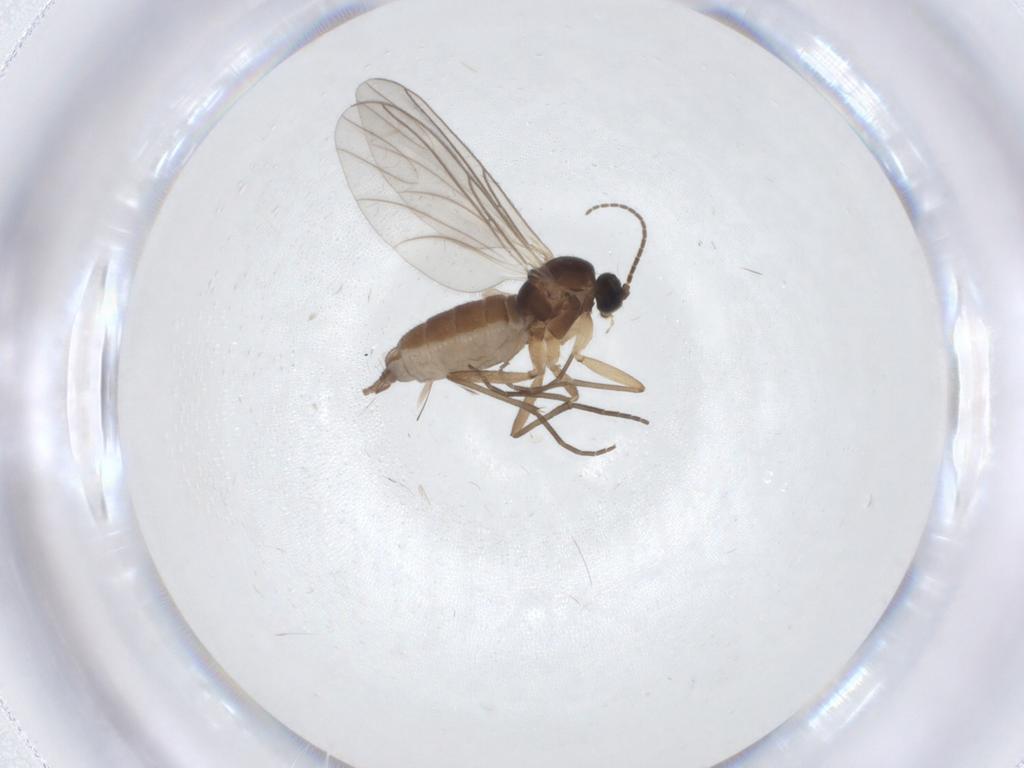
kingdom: Animalia
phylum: Arthropoda
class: Insecta
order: Diptera
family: Sciaridae
